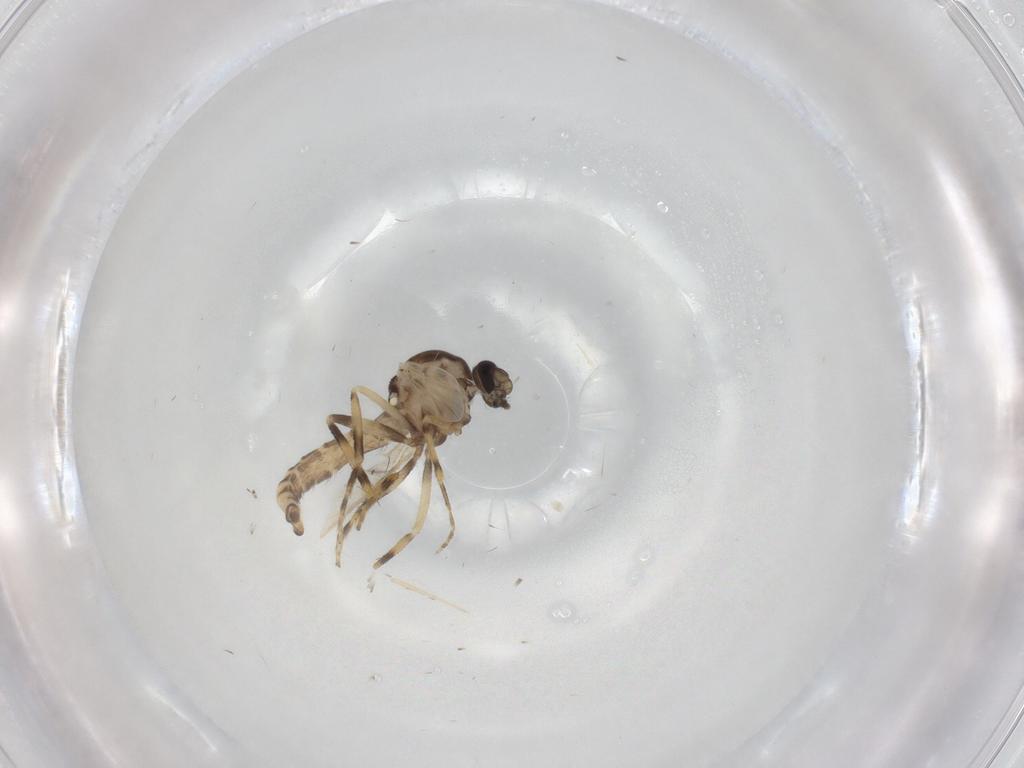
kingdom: Animalia
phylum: Arthropoda
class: Insecta
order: Diptera
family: Ceratopogonidae
